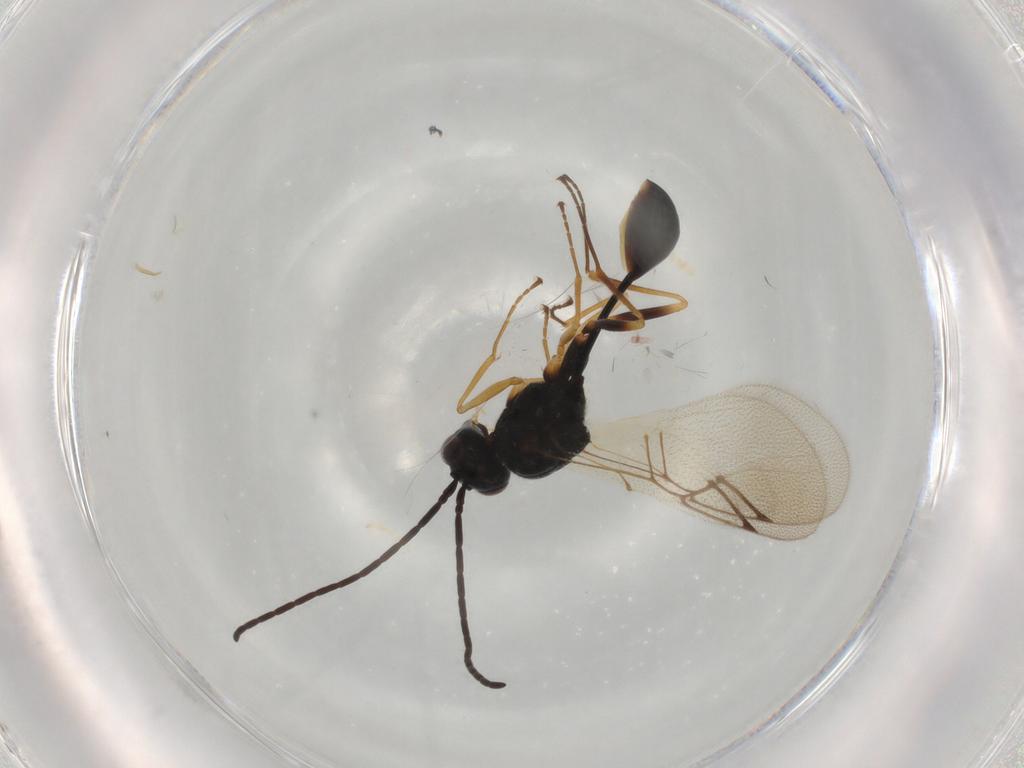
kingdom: Animalia
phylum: Arthropoda
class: Insecta
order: Hymenoptera
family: Figitidae
